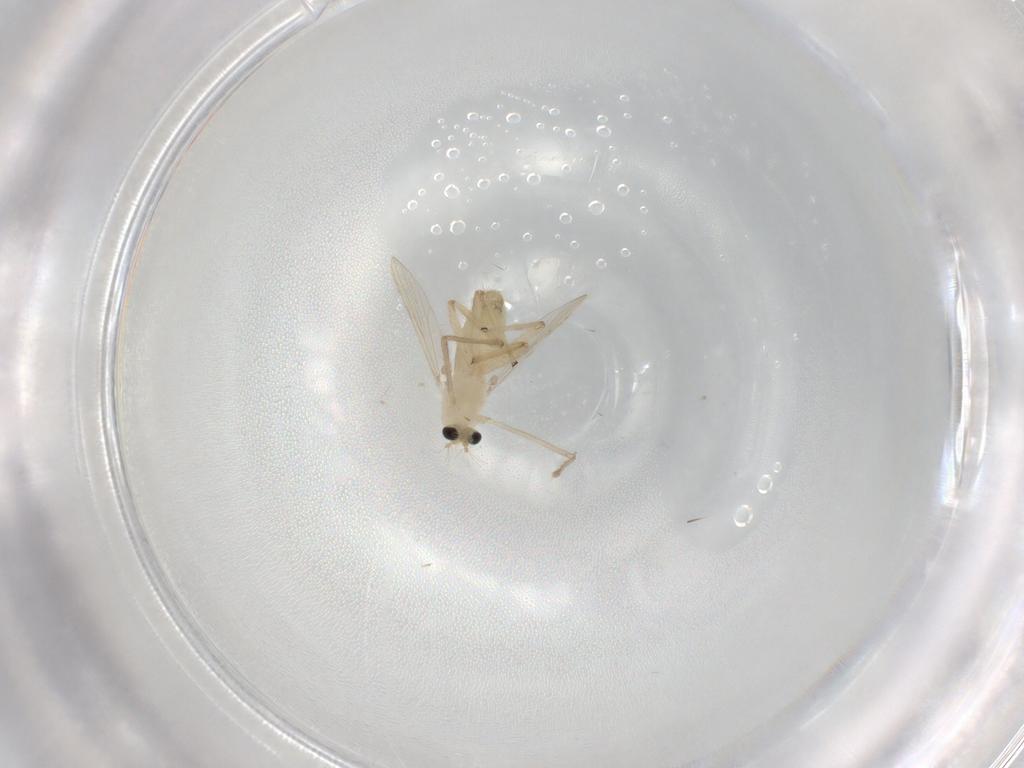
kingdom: Animalia
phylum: Arthropoda
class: Insecta
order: Diptera
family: Chironomidae
